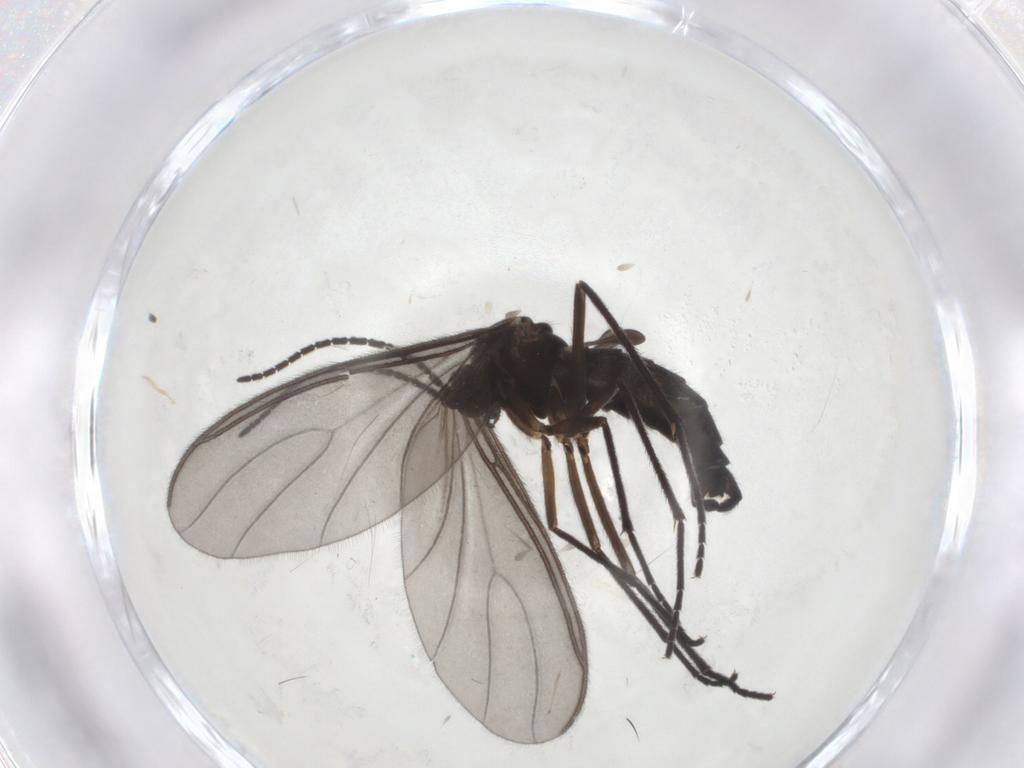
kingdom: Animalia
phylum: Arthropoda
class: Insecta
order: Diptera
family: Sciaridae
